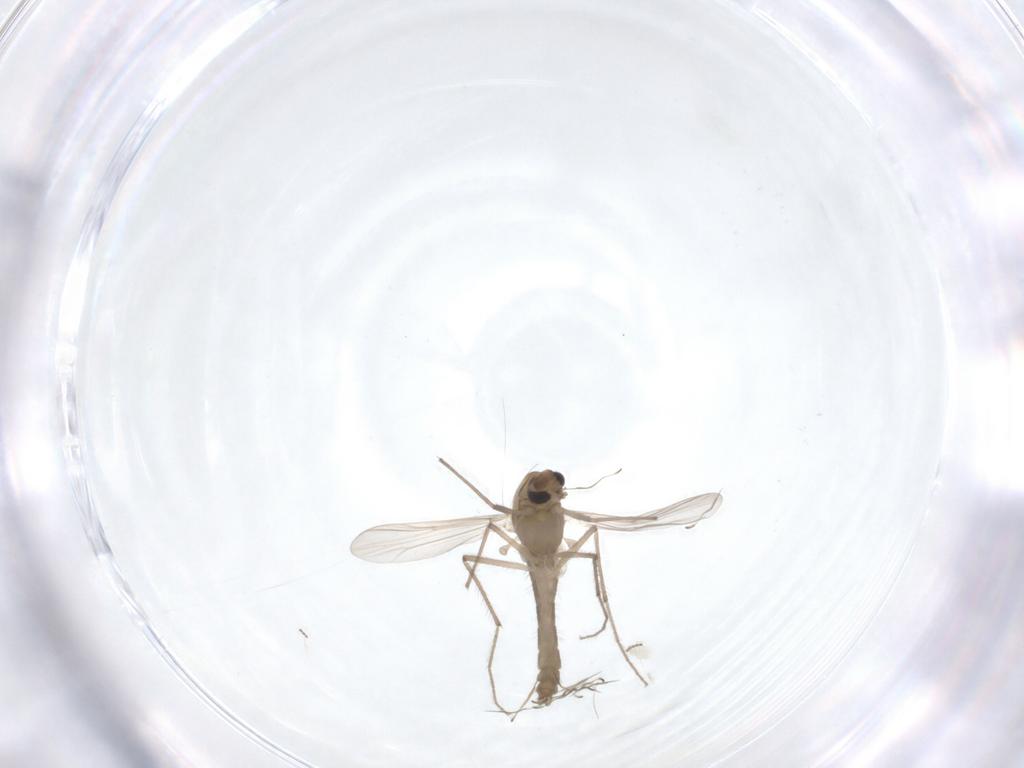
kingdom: Animalia
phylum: Arthropoda
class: Insecta
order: Diptera
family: Chironomidae
